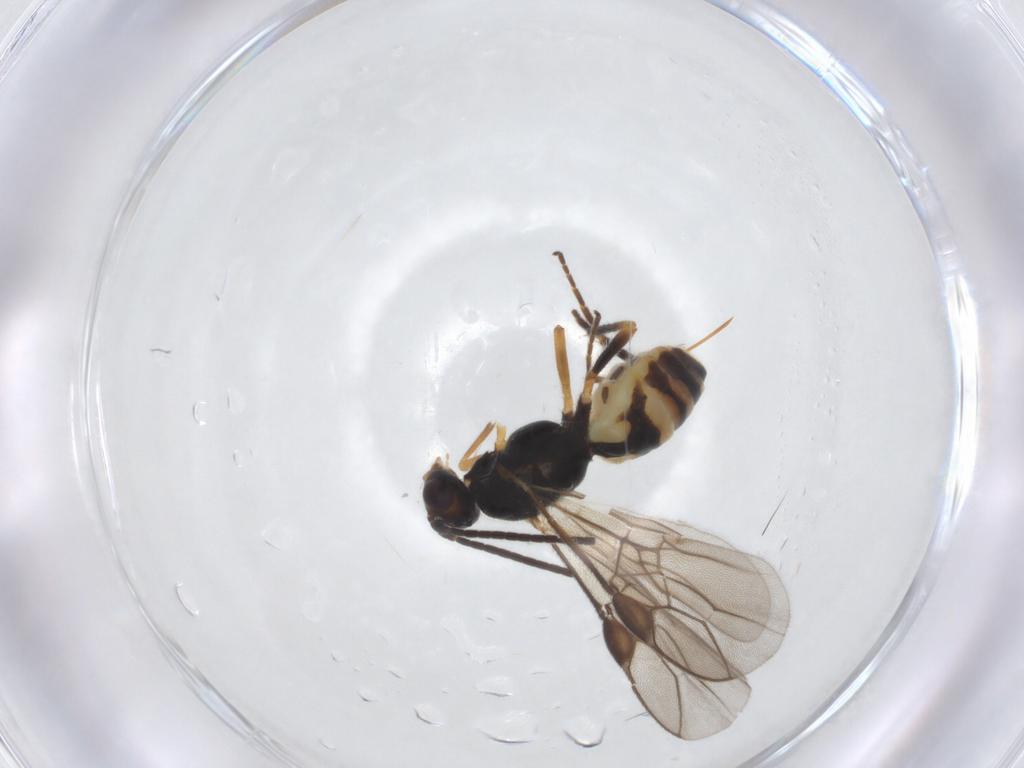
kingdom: Animalia
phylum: Arthropoda
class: Insecta
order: Hymenoptera
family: Braconidae
